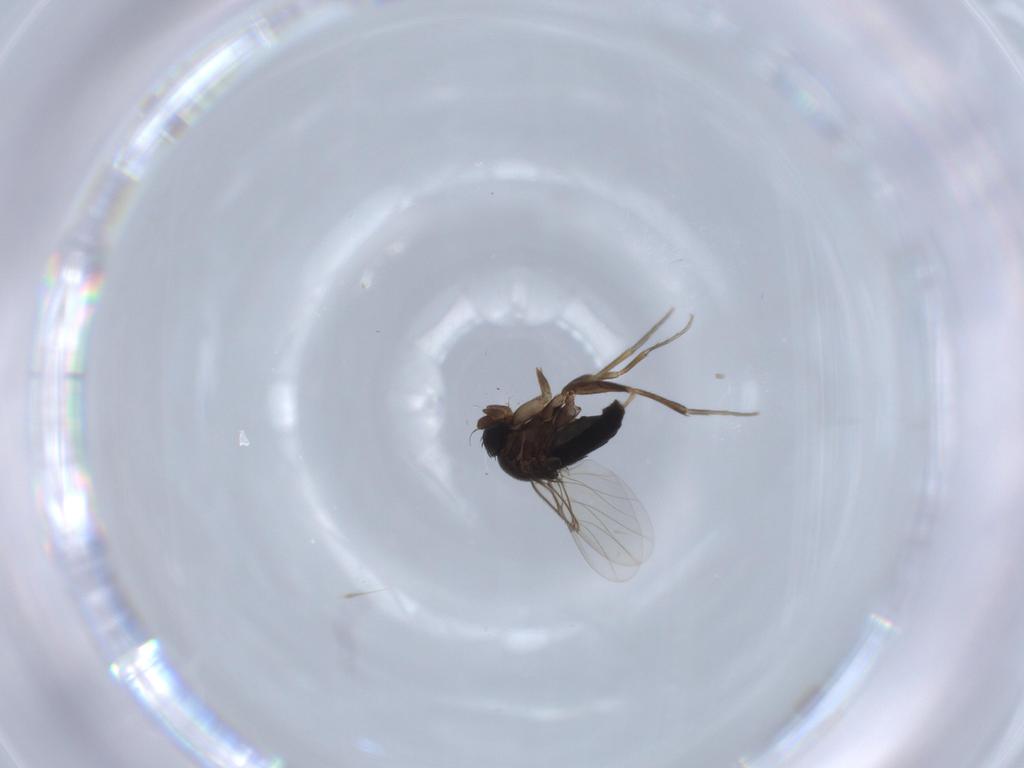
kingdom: Animalia
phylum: Arthropoda
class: Insecta
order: Diptera
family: Phoridae
